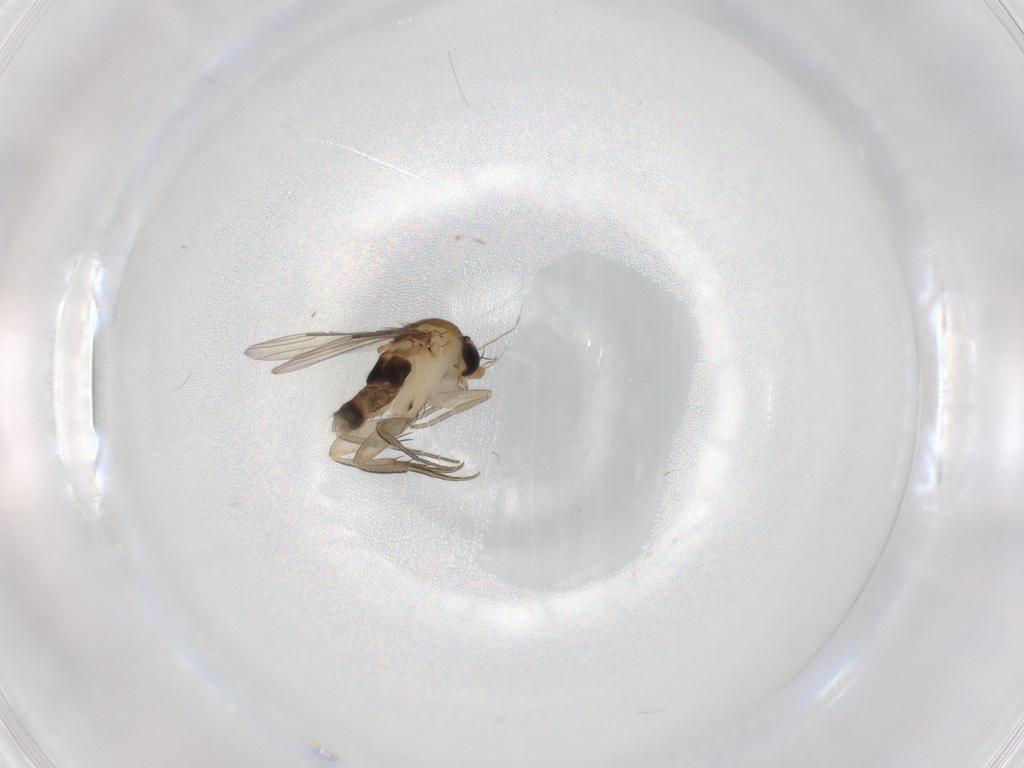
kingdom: Animalia
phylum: Arthropoda
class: Insecta
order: Diptera
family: Phoridae
